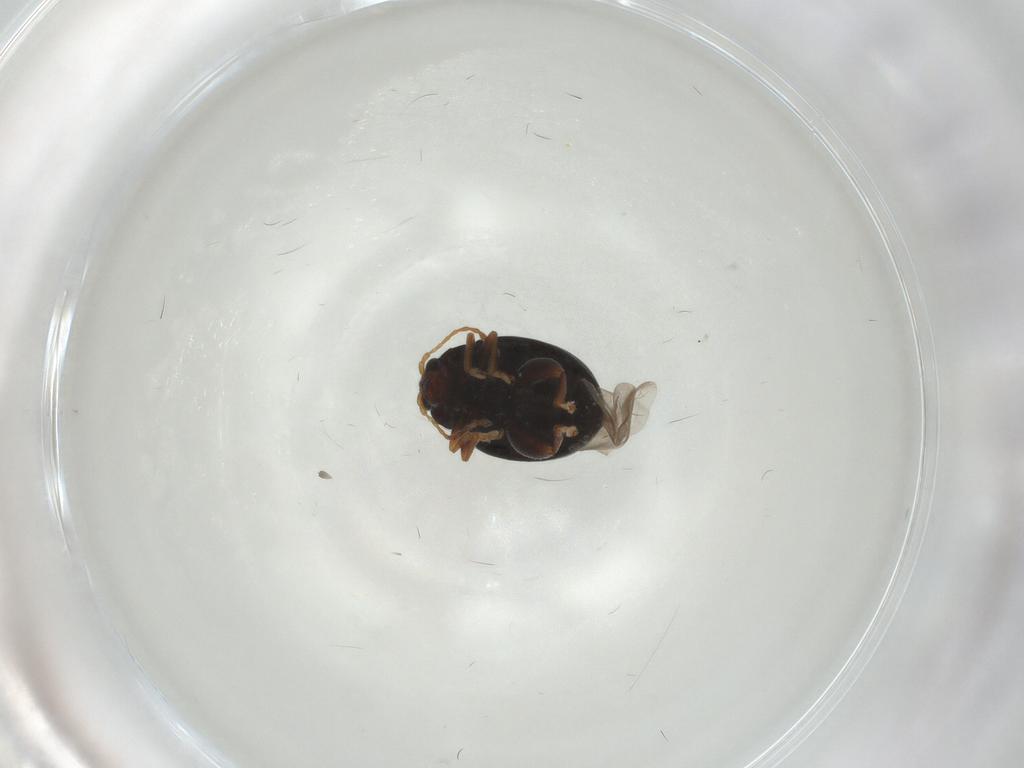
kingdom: Animalia
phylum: Arthropoda
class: Insecta
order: Coleoptera
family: Chrysomelidae
